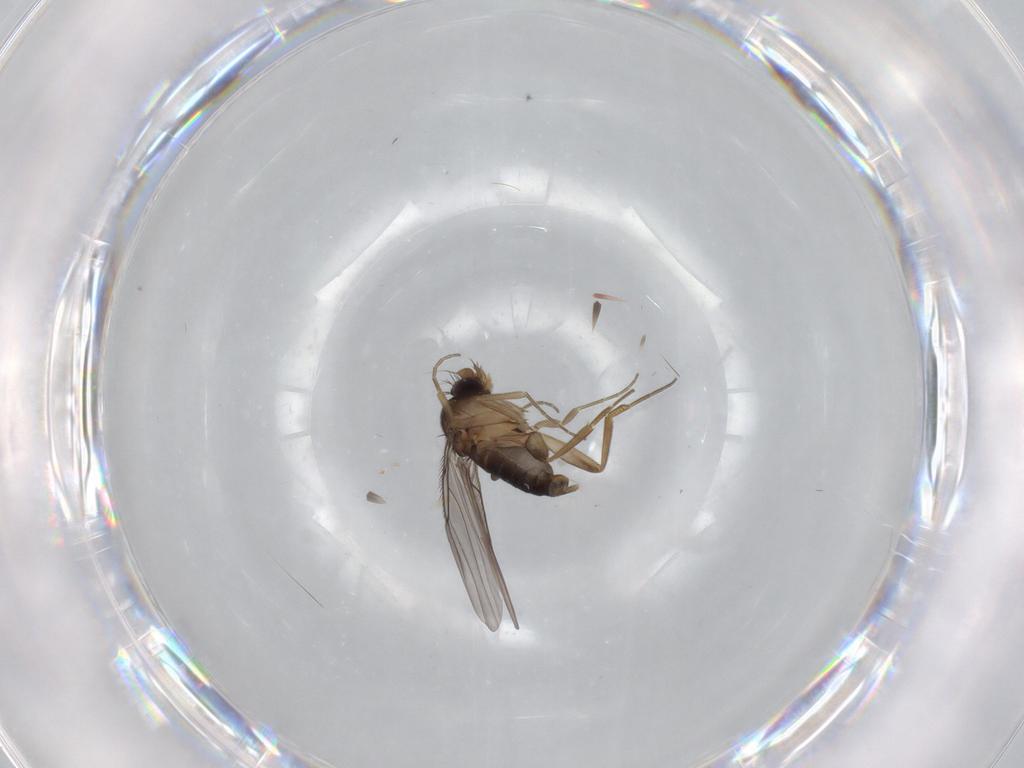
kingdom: Animalia
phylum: Arthropoda
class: Insecta
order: Diptera
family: Phoridae
